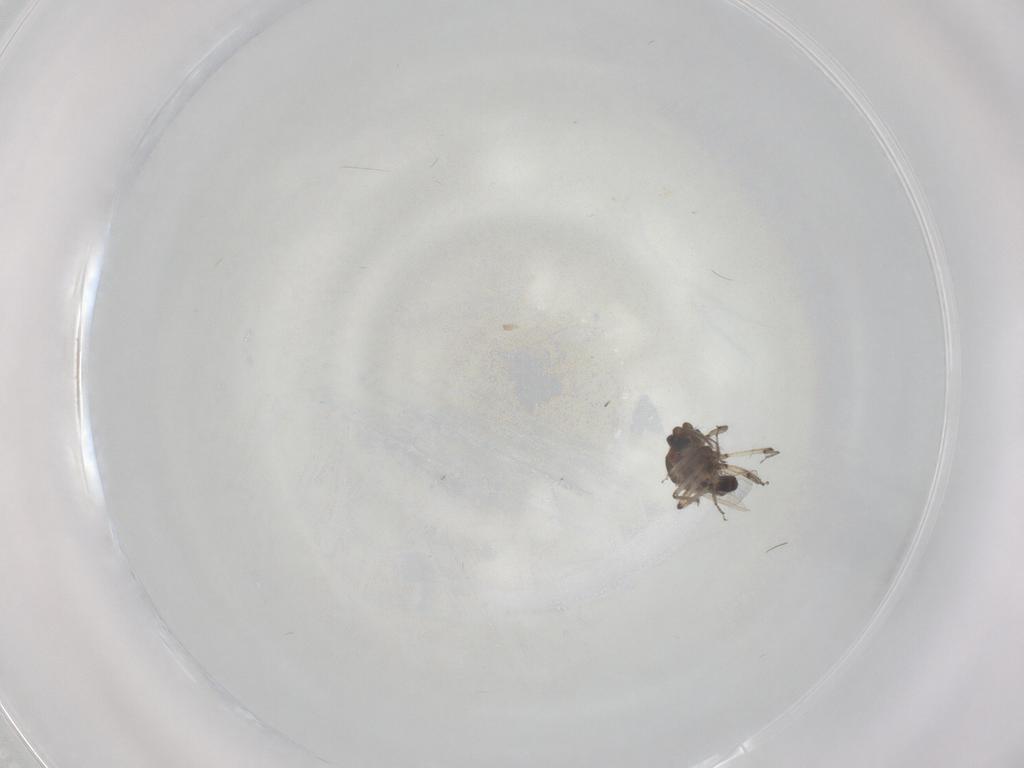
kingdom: Animalia
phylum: Arthropoda
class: Insecta
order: Diptera
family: Ceratopogonidae
